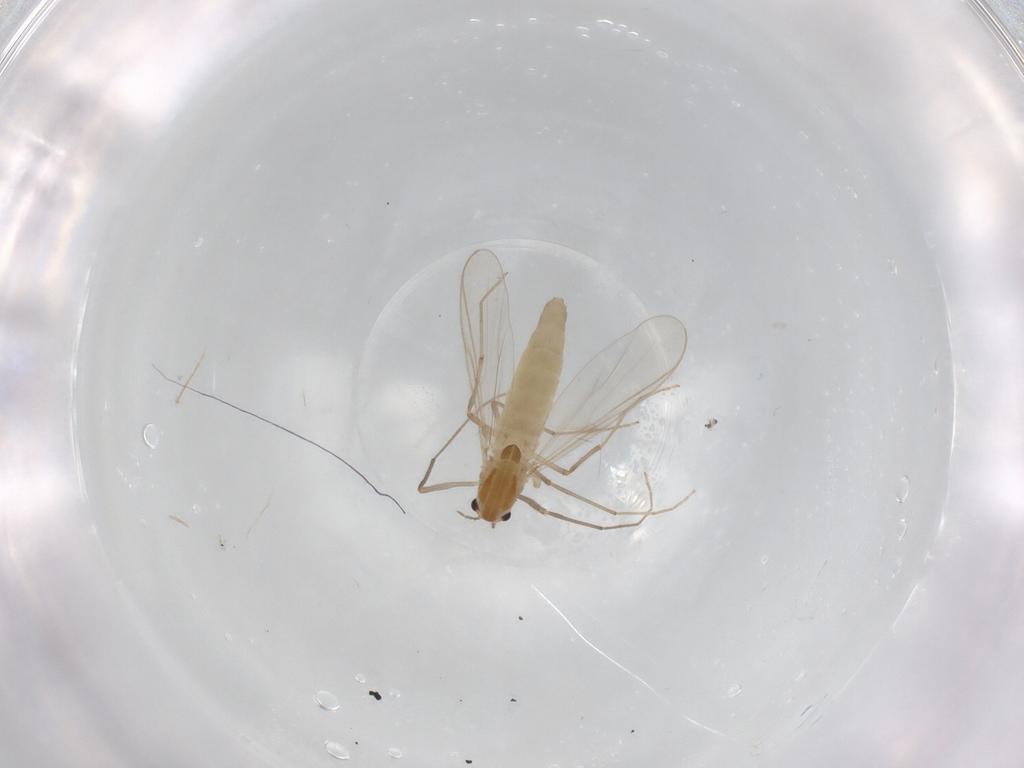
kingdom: Animalia
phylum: Arthropoda
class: Insecta
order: Diptera
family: Chironomidae
